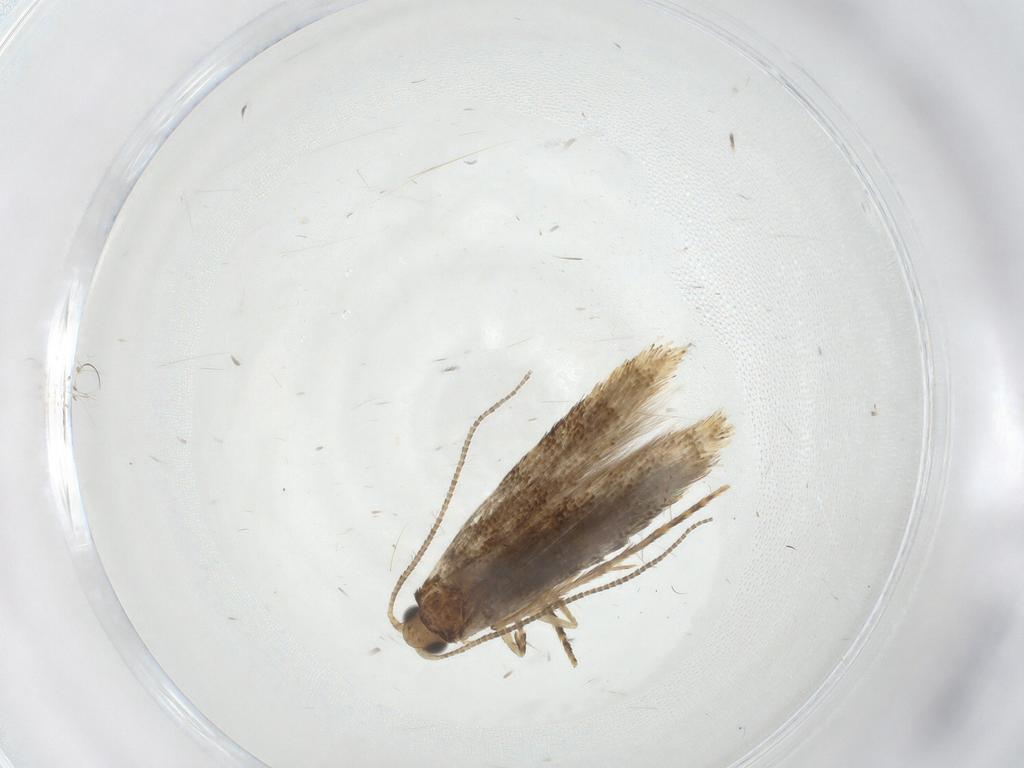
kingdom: Animalia
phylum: Arthropoda
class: Insecta
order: Lepidoptera
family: Tineidae
